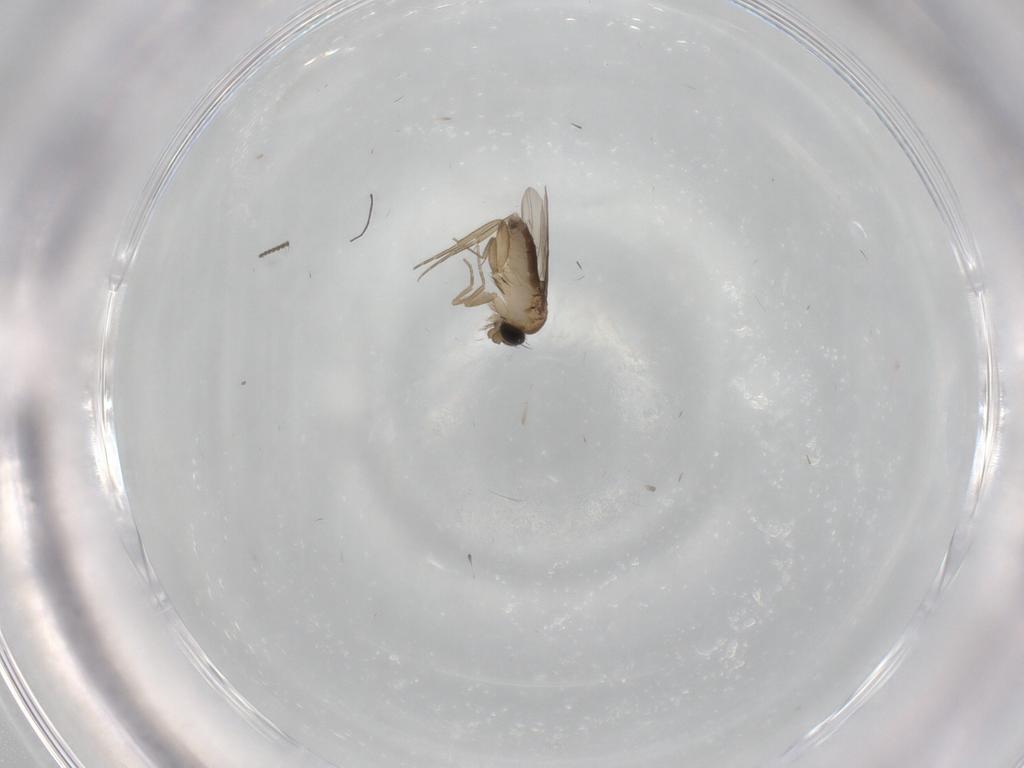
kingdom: Animalia
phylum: Arthropoda
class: Insecta
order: Diptera
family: Phoridae
